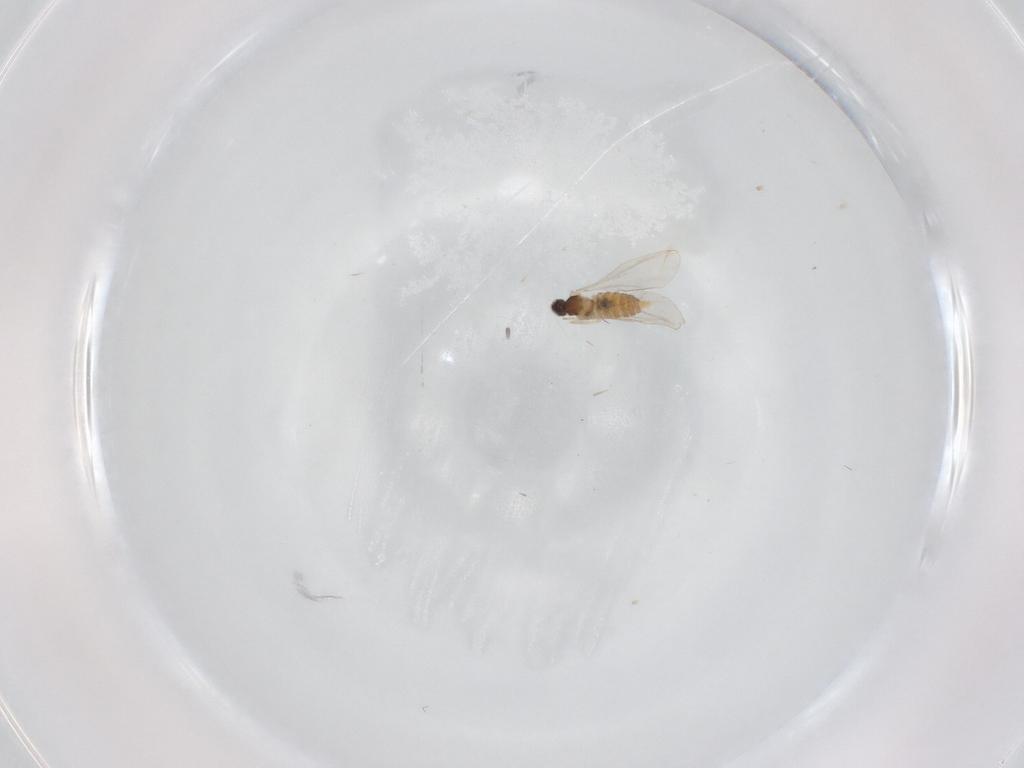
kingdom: Animalia
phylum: Arthropoda
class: Insecta
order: Diptera
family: Cecidomyiidae
